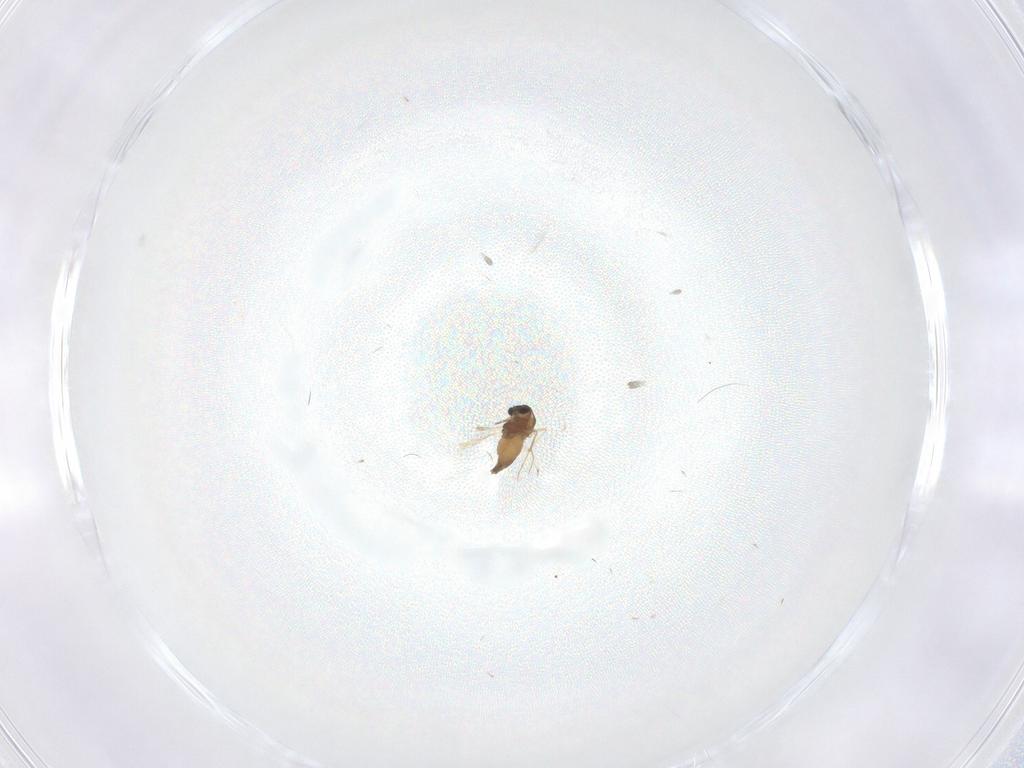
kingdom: Animalia
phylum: Arthropoda
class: Insecta
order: Diptera
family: Chironomidae
